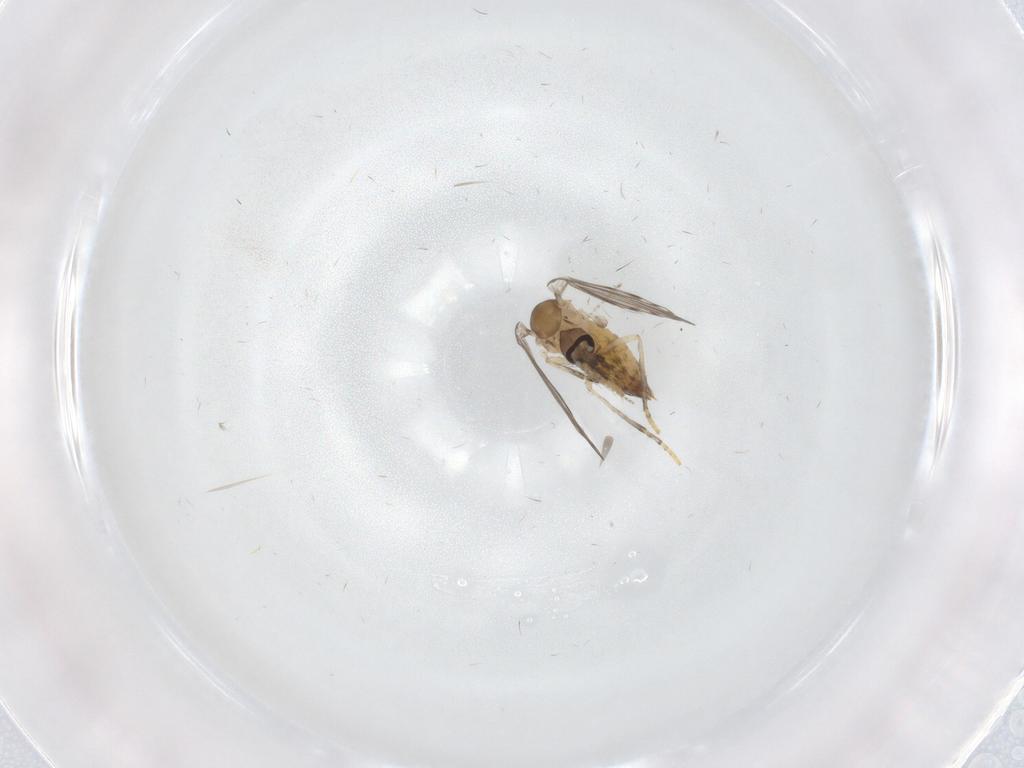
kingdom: Animalia
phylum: Arthropoda
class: Insecta
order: Diptera
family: Psychodidae
